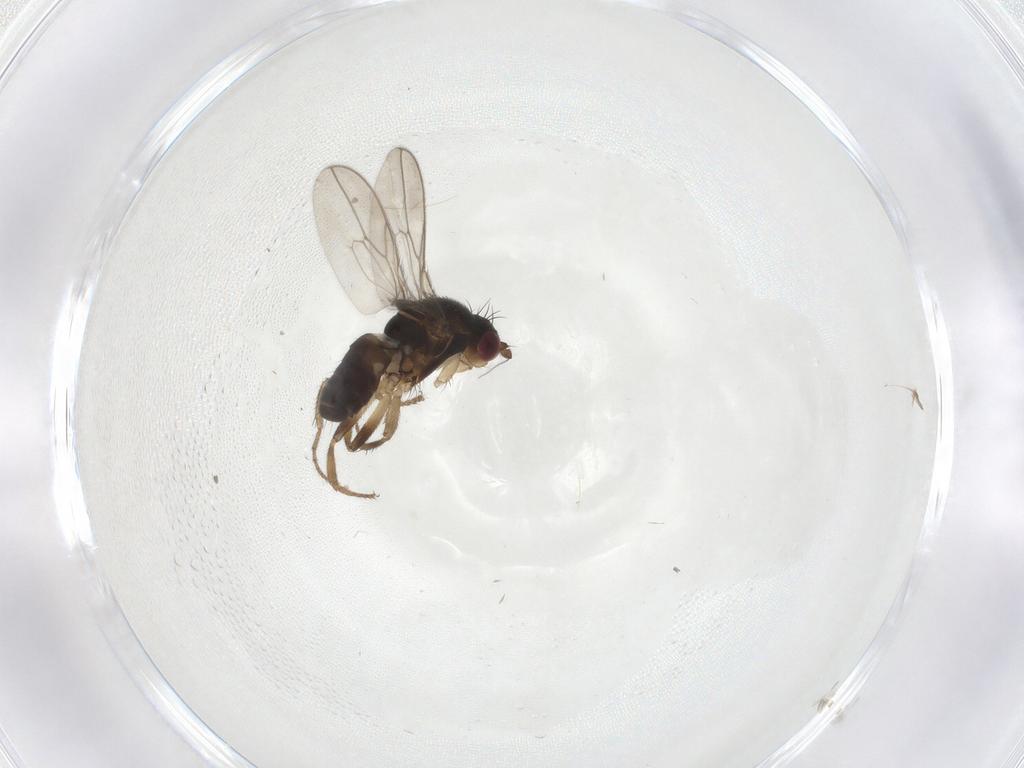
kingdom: Animalia
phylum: Arthropoda
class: Insecta
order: Diptera
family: Sphaeroceridae
